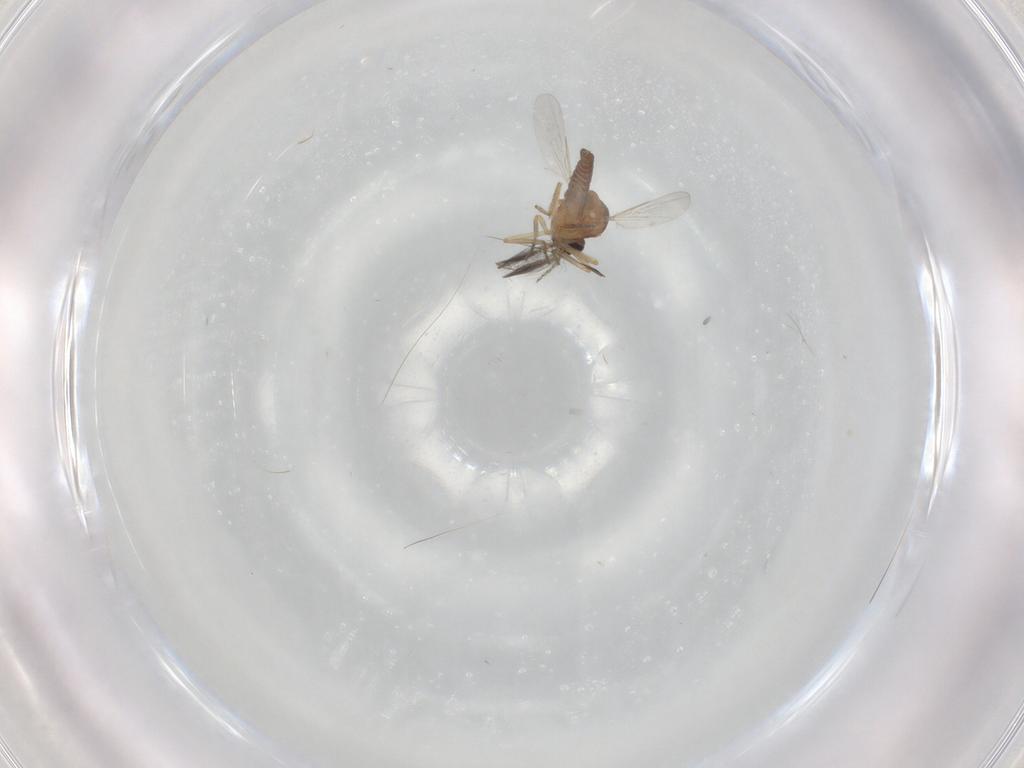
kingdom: Animalia
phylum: Arthropoda
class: Insecta
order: Diptera
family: Ceratopogonidae
